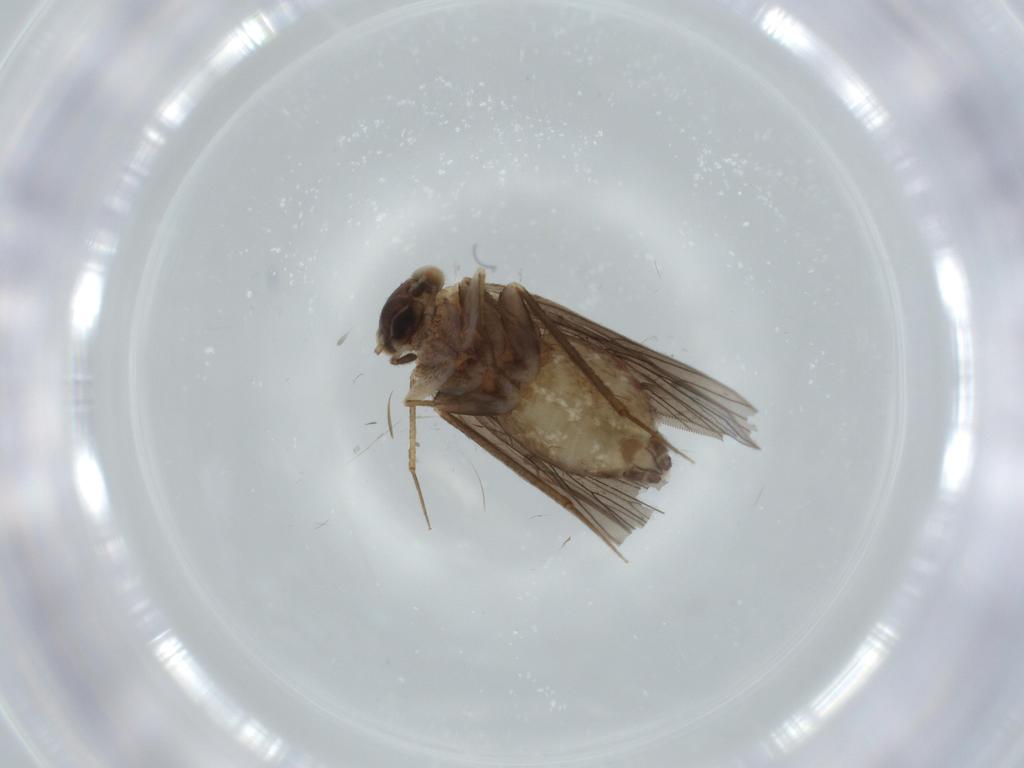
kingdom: Animalia
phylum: Arthropoda
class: Insecta
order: Psocodea
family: Lepidopsocidae
